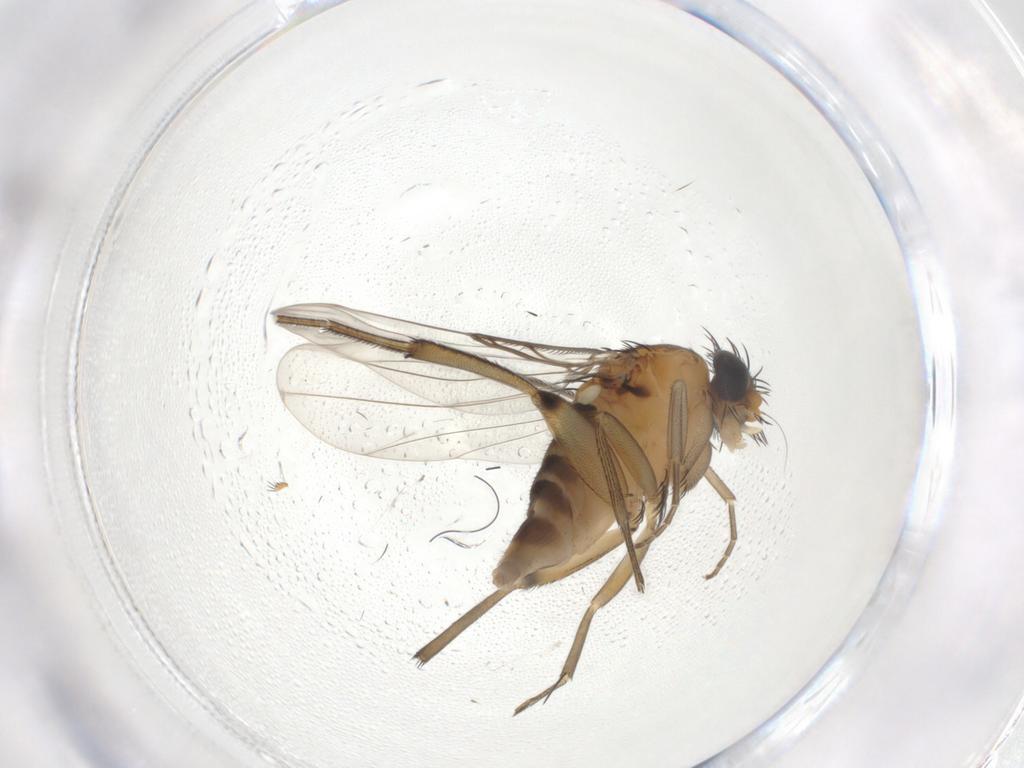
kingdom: Animalia
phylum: Arthropoda
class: Insecta
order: Diptera
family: Phoridae
